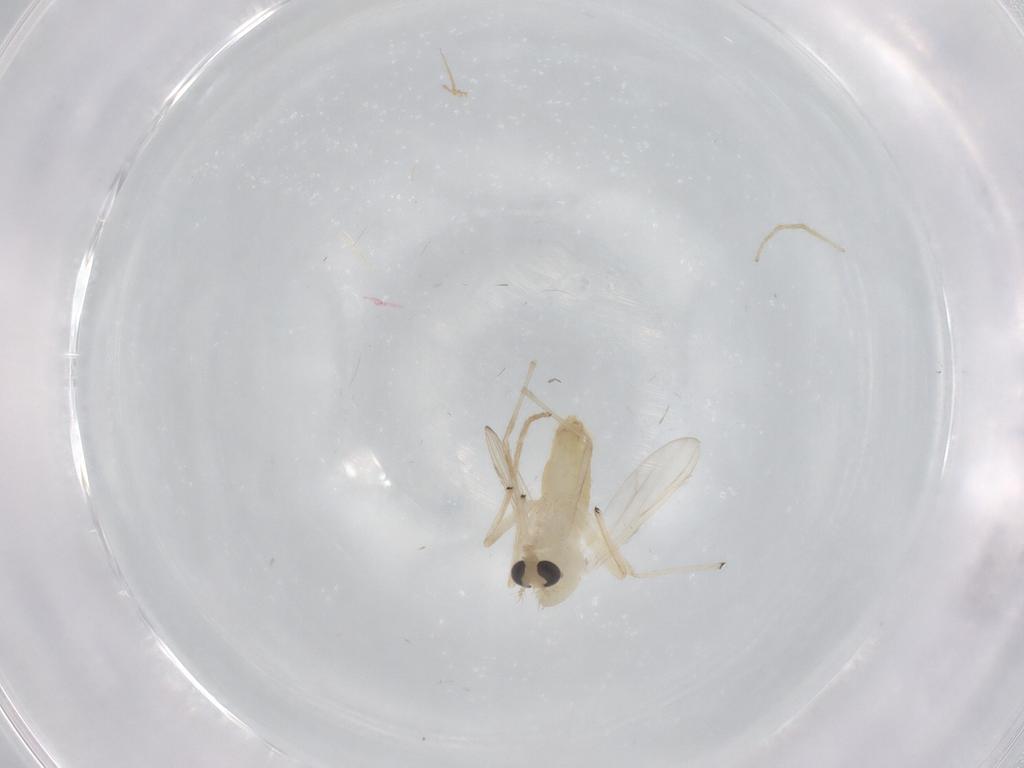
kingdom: Animalia
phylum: Arthropoda
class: Insecta
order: Diptera
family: Chironomidae
